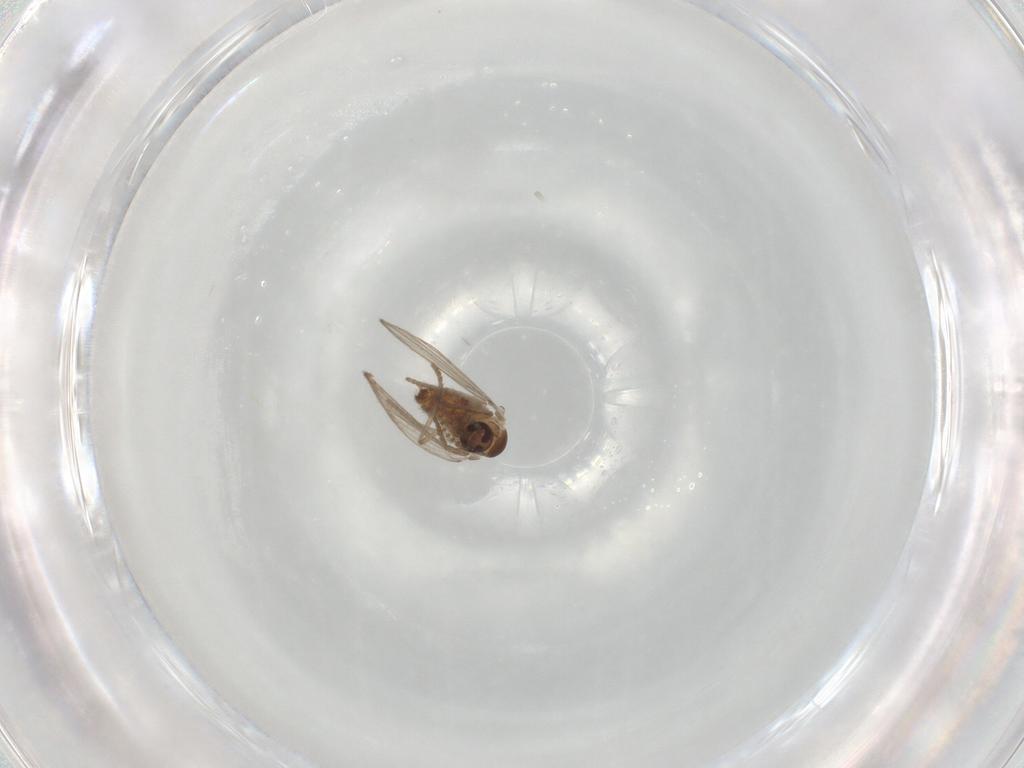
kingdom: Animalia
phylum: Arthropoda
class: Insecta
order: Diptera
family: Psychodidae
